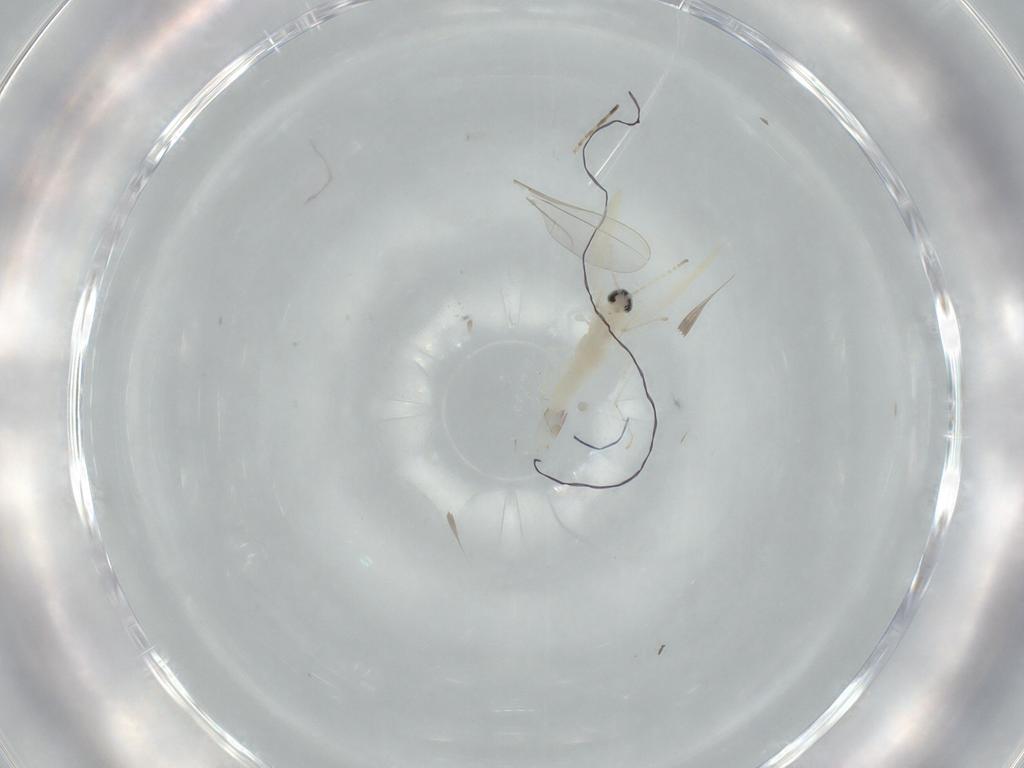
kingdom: Animalia
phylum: Arthropoda
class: Insecta
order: Diptera
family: Cecidomyiidae
